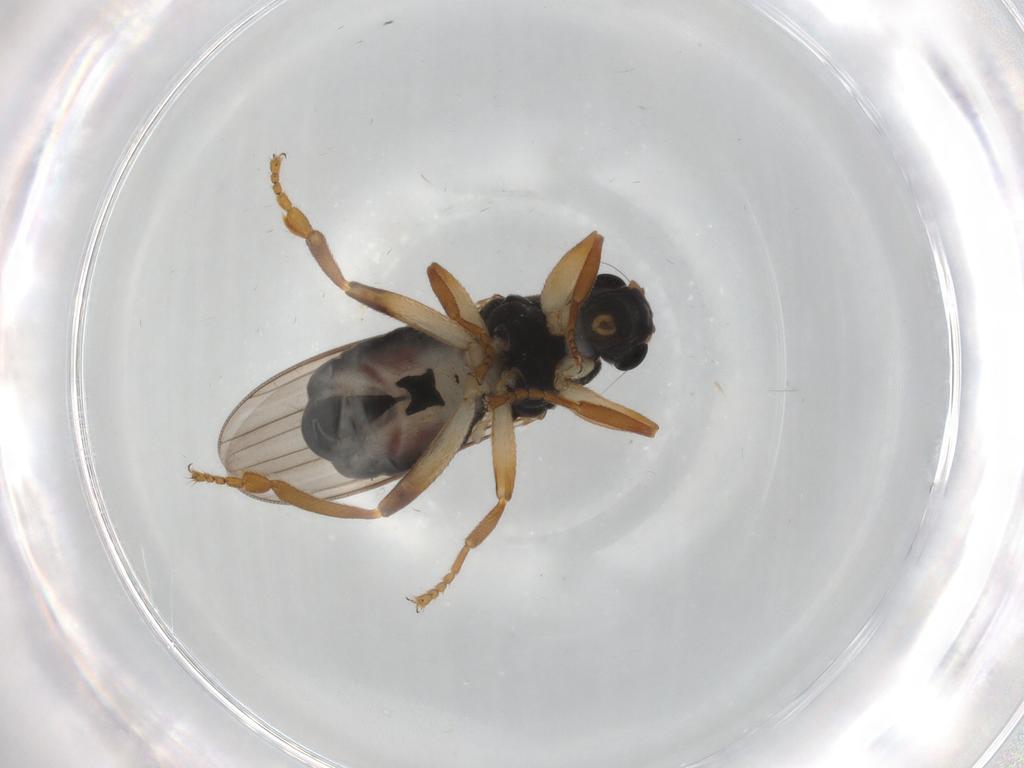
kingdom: Animalia
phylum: Arthropoda
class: Insecta
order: Diptera
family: Sphaeroceridae
